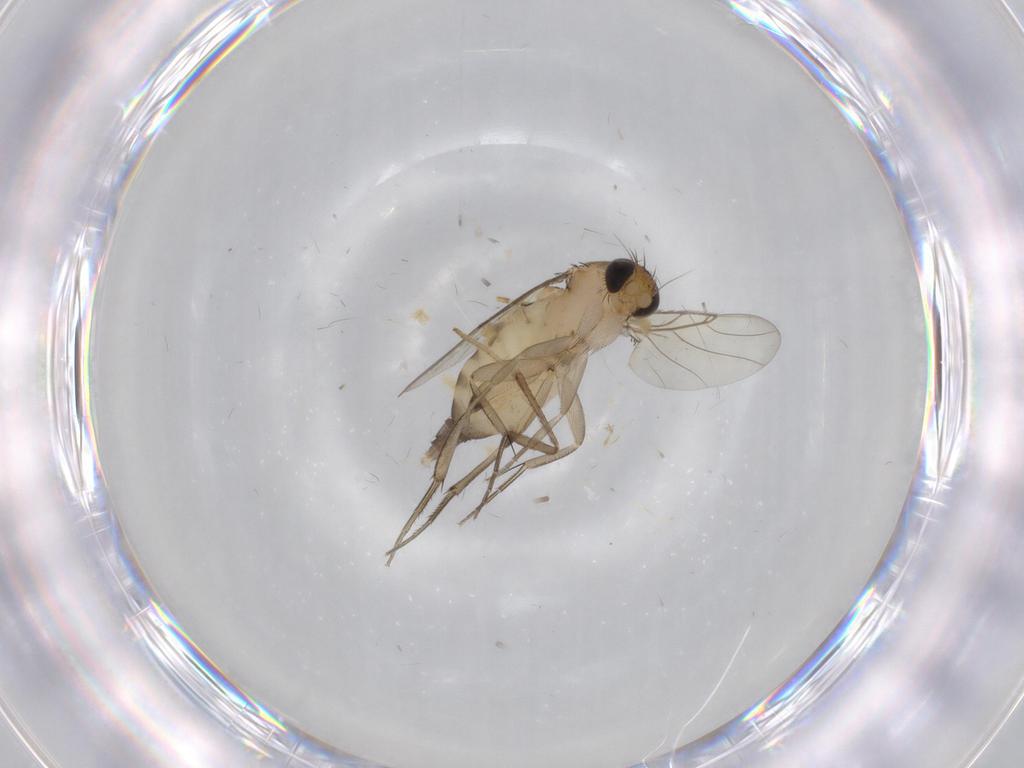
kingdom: Animalia
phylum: Arthropoda
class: Insecta
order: Diptera
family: Phoridae
